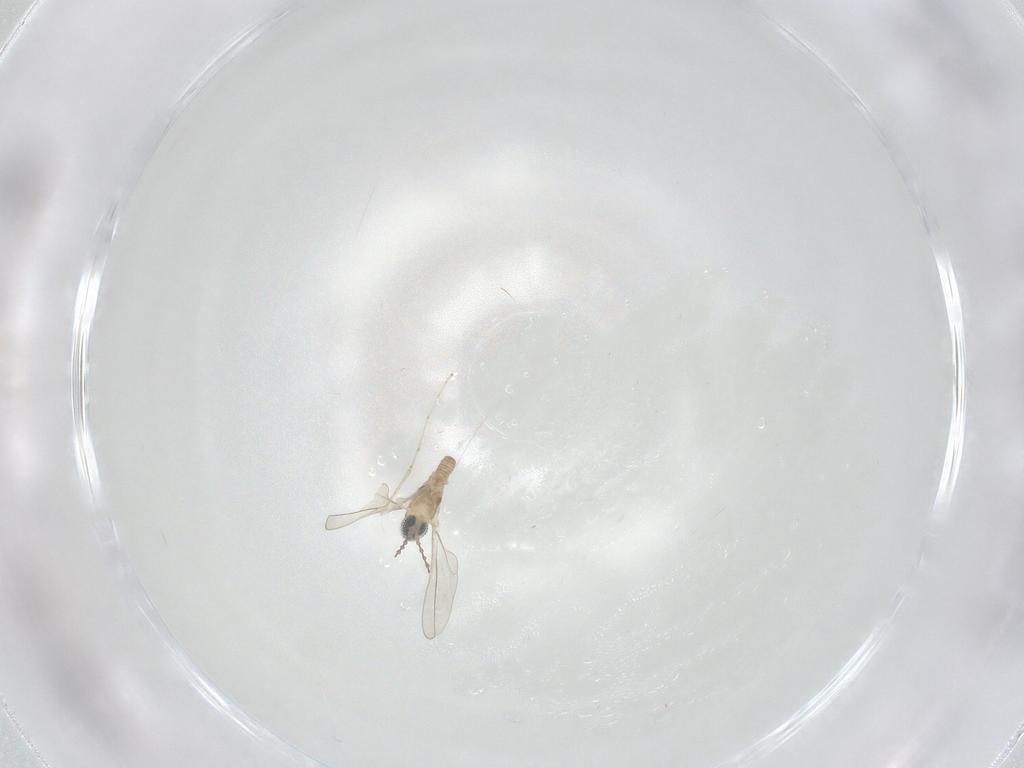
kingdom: Animalia
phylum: Arthropoda
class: Insecta
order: Diptera
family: Cecidomyiidae
